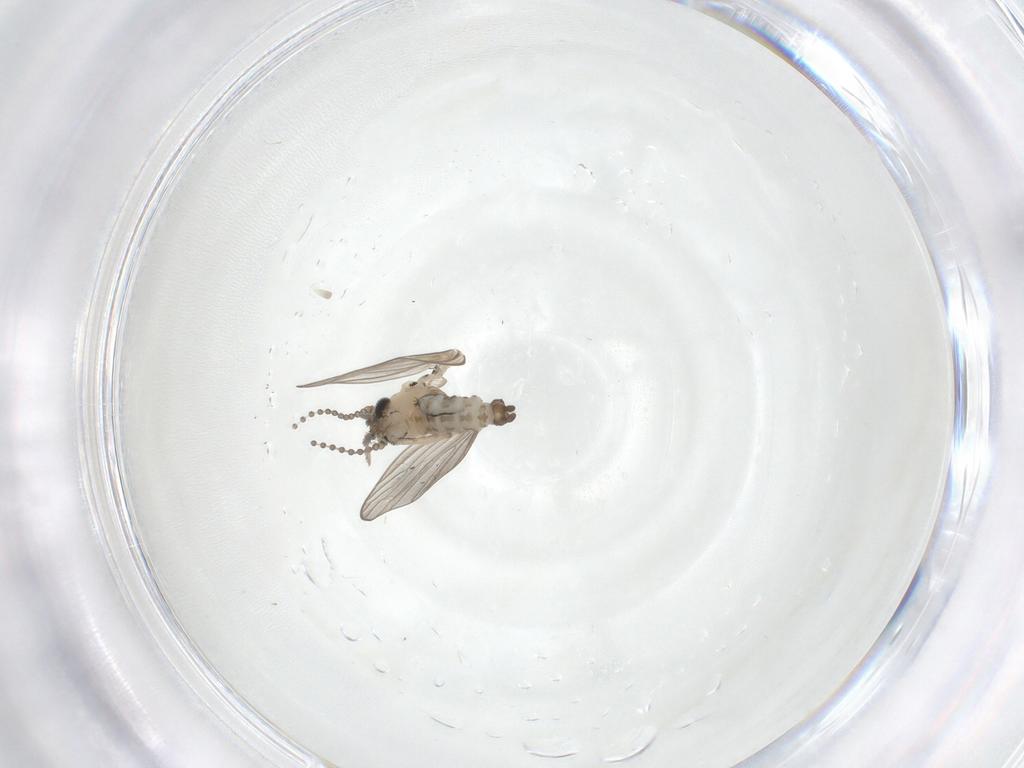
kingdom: Animalia
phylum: Arthropoda
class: Insecta
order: Diptera
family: Psychodidae
